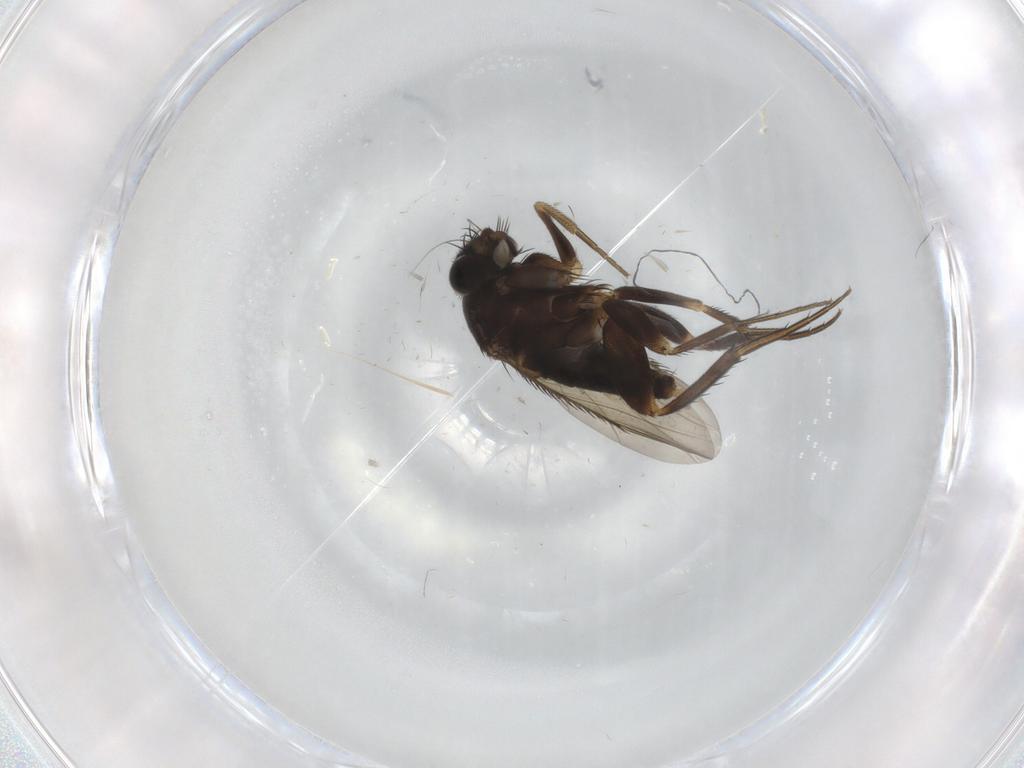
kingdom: Animalia
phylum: Arthropoda
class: Insecta
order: Diptera
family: Phoridae
